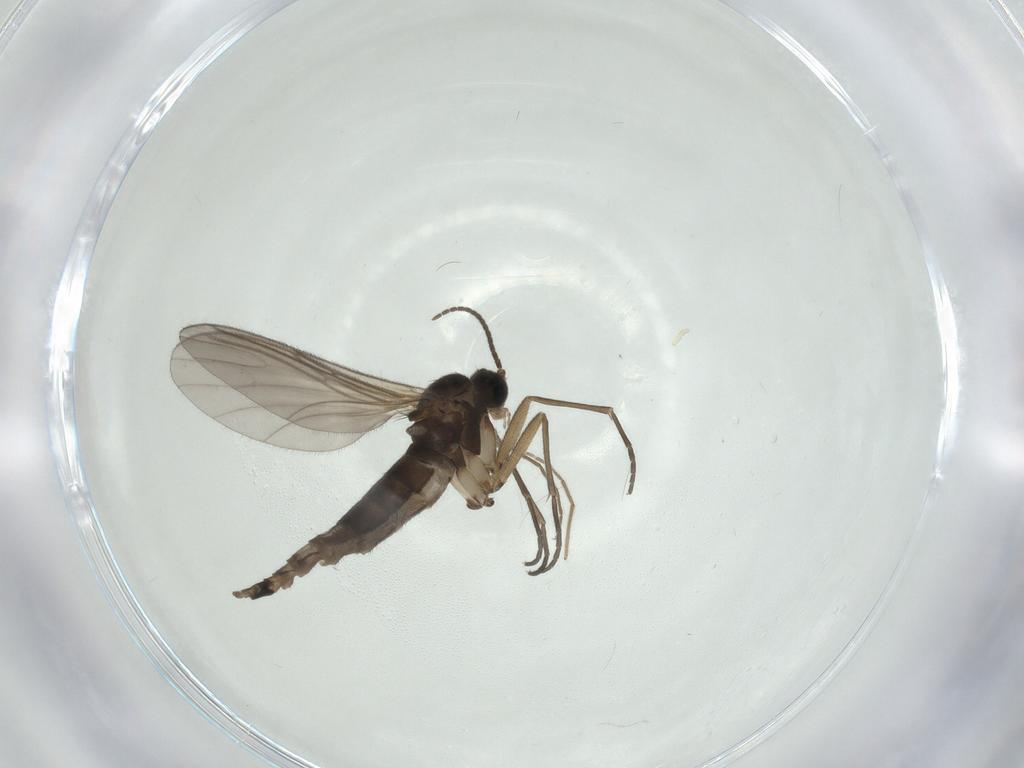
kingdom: Animalia
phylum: Arthropoda
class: Insecta
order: Diptera
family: Sciaridae
